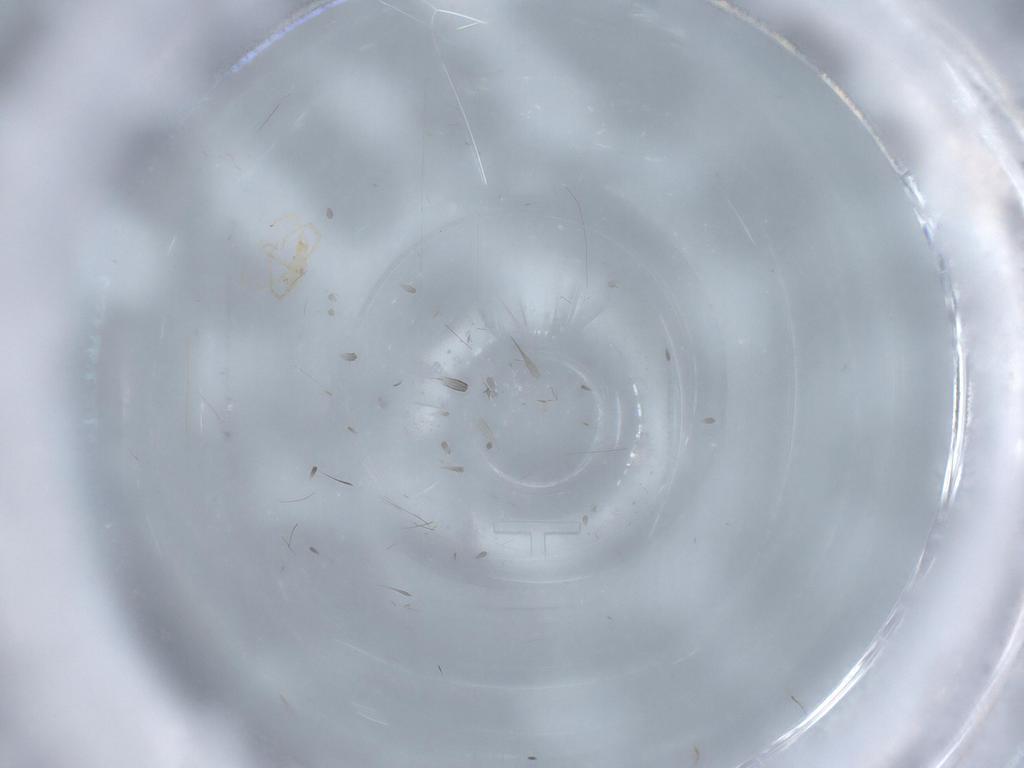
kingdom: Animalia
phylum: Arthropoda
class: Arachnida
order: Trombidiformes
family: Erythraeidae
